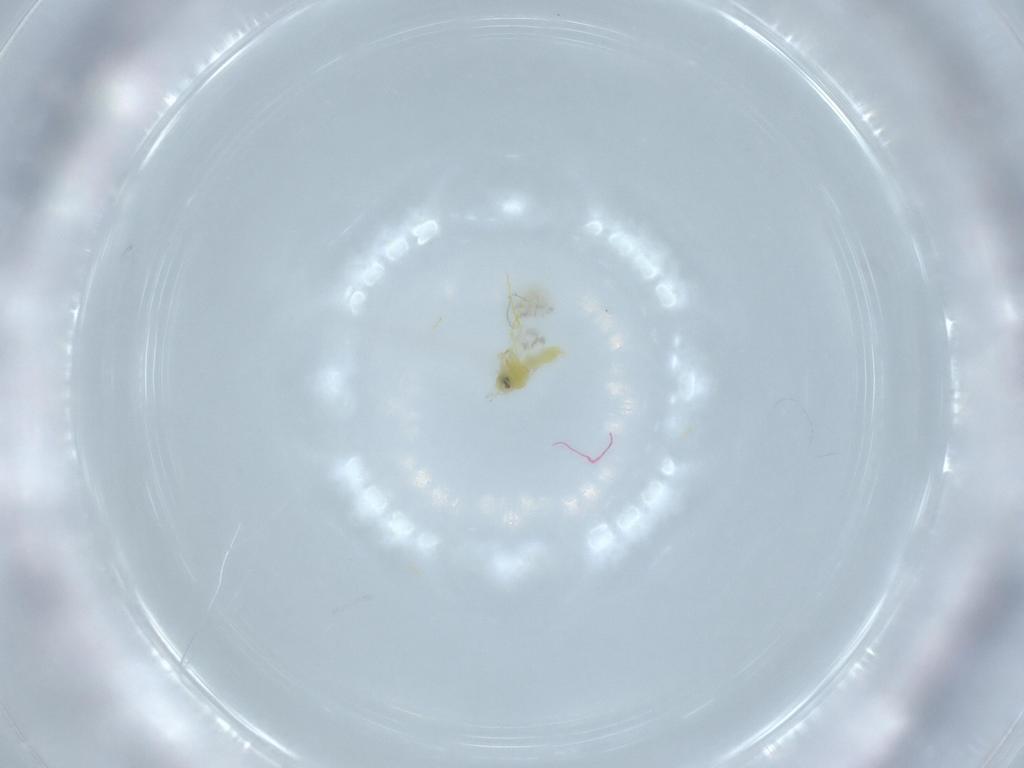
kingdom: Animalia
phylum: Arthropoda
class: Insecta
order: Hemiptera
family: Aleyrodidae
